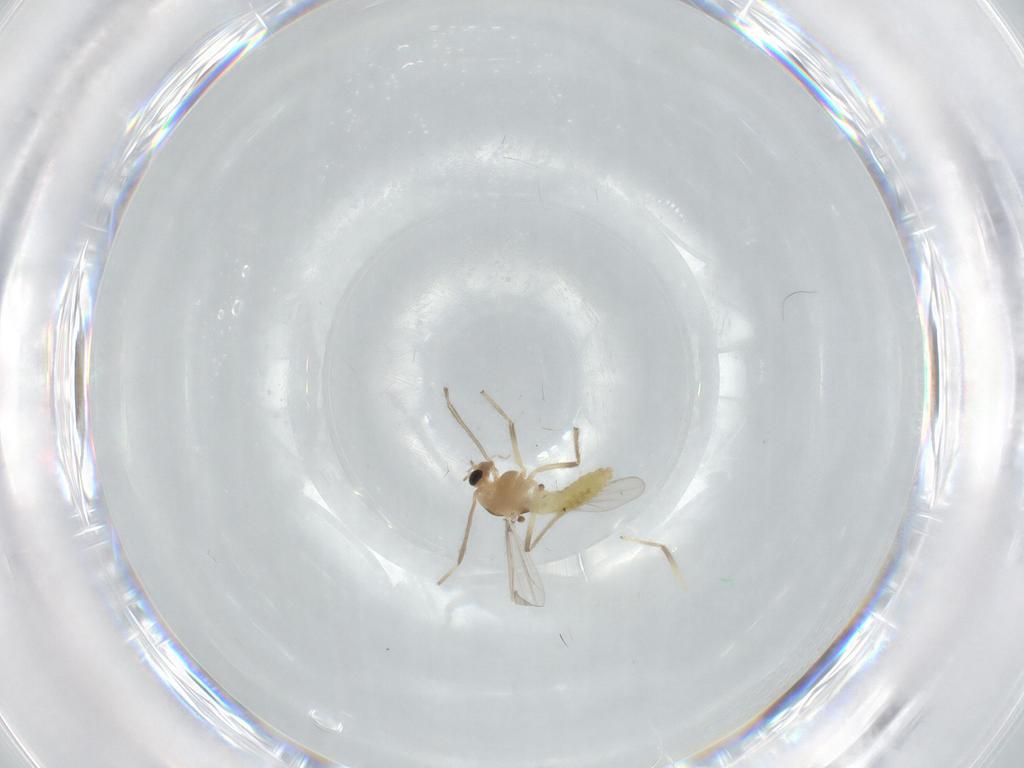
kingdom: Animalia
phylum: Arthropoda
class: Insecta
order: Diptera
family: Chironomidae
